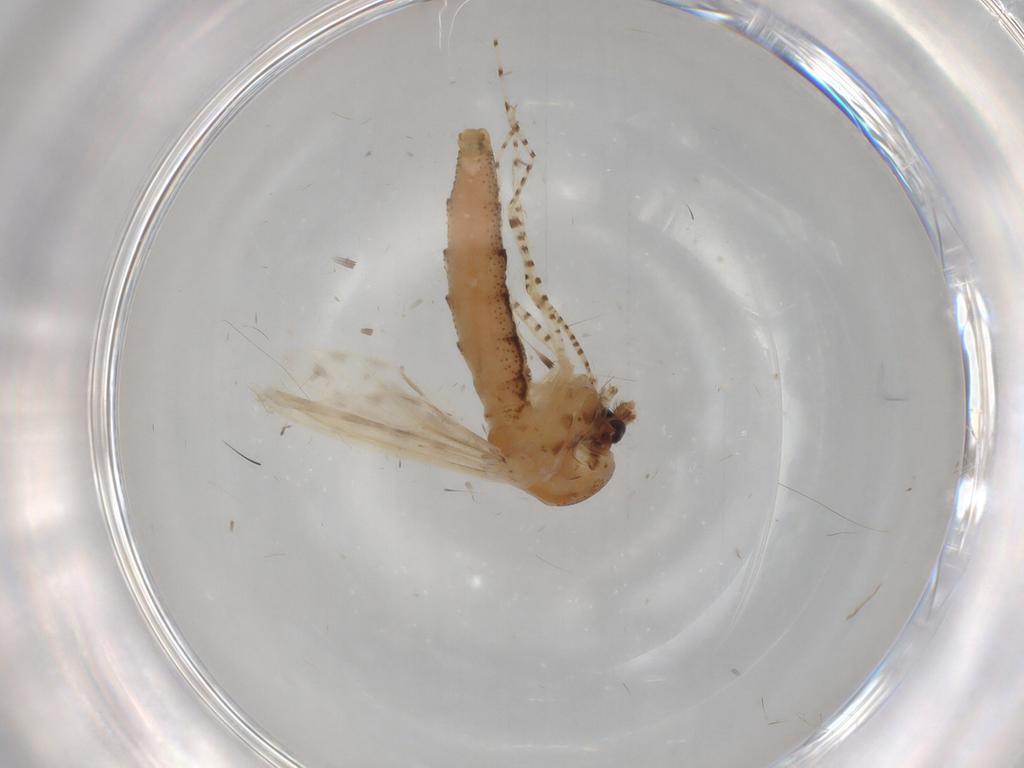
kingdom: Animalia
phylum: Arthropoda
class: Insecta
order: Diptera
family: Chaoboridae
